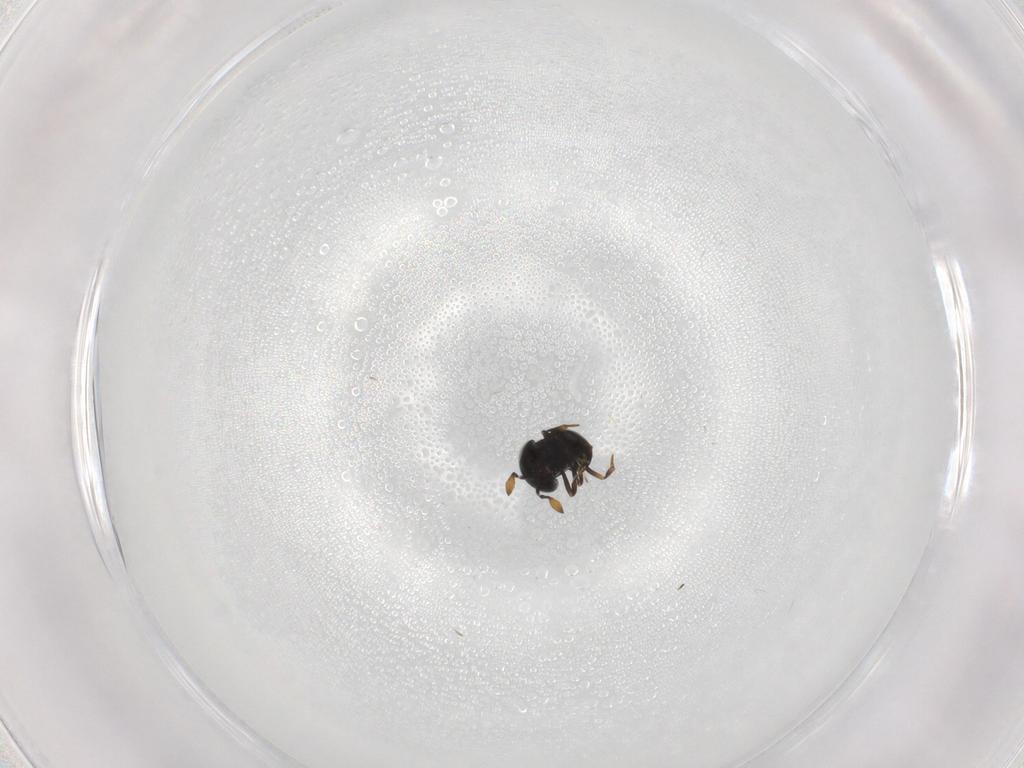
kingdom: Animalia
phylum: Arthropoda
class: Insecta
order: Hymenoptera
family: Scelionidae
